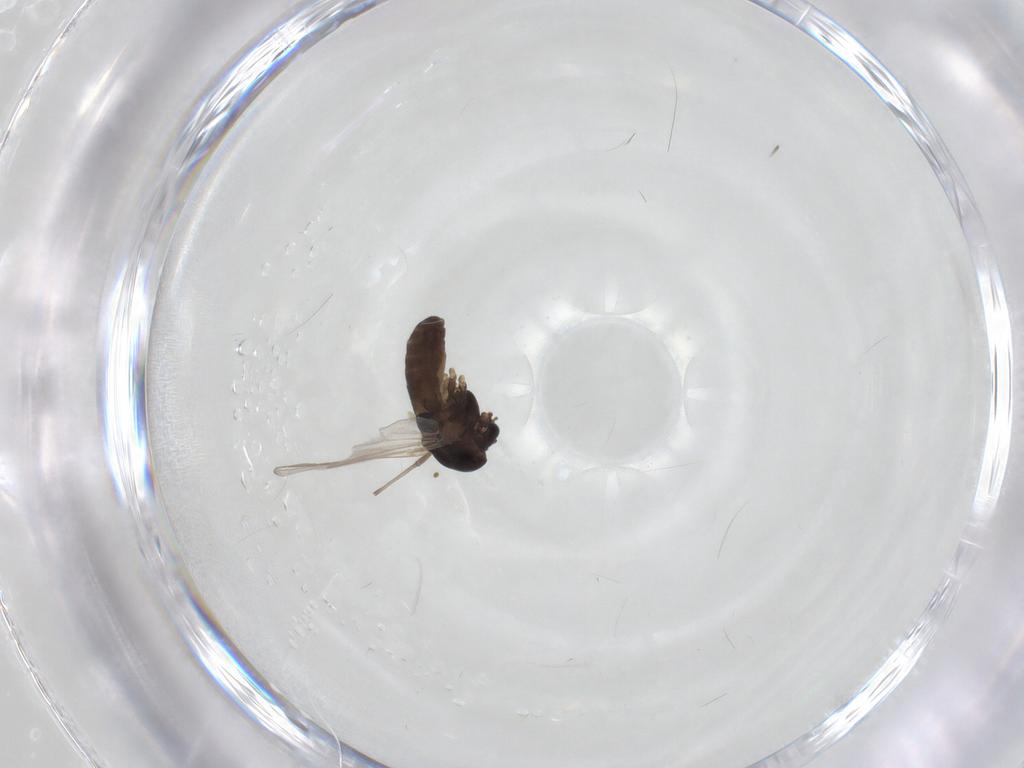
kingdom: Animalia
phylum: Arthropoda
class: Insecta
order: Diptera
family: Chironomidae
